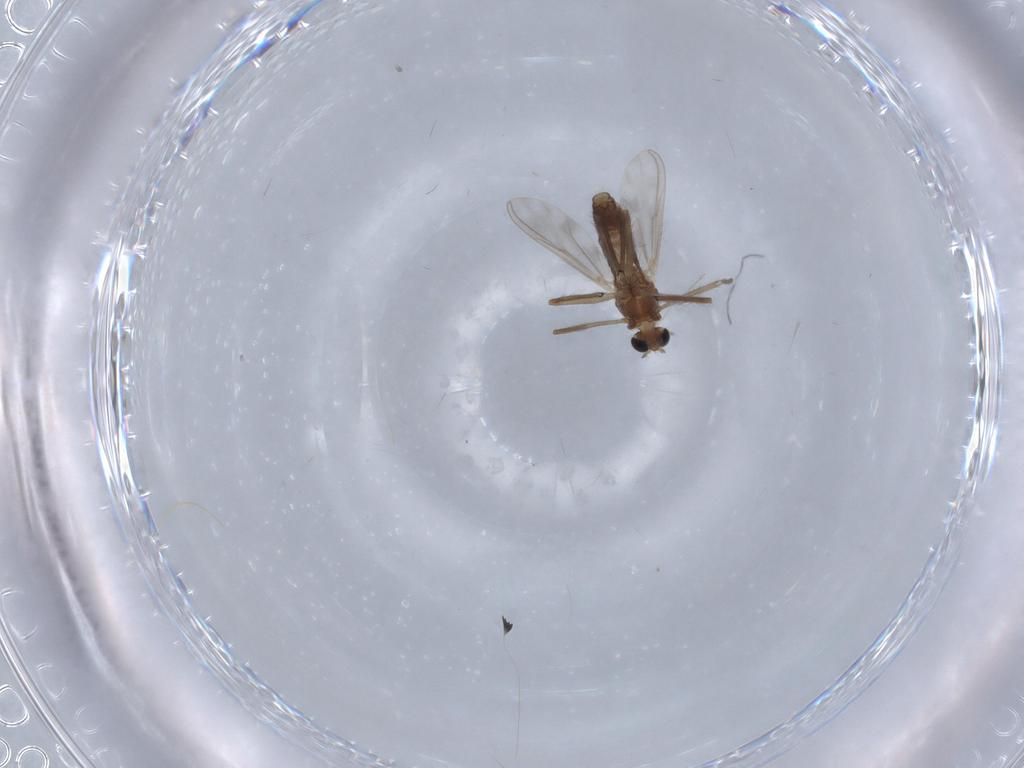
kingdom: Animalia
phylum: Arthropoda
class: Insecta
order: Diptera
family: Chironomidae
